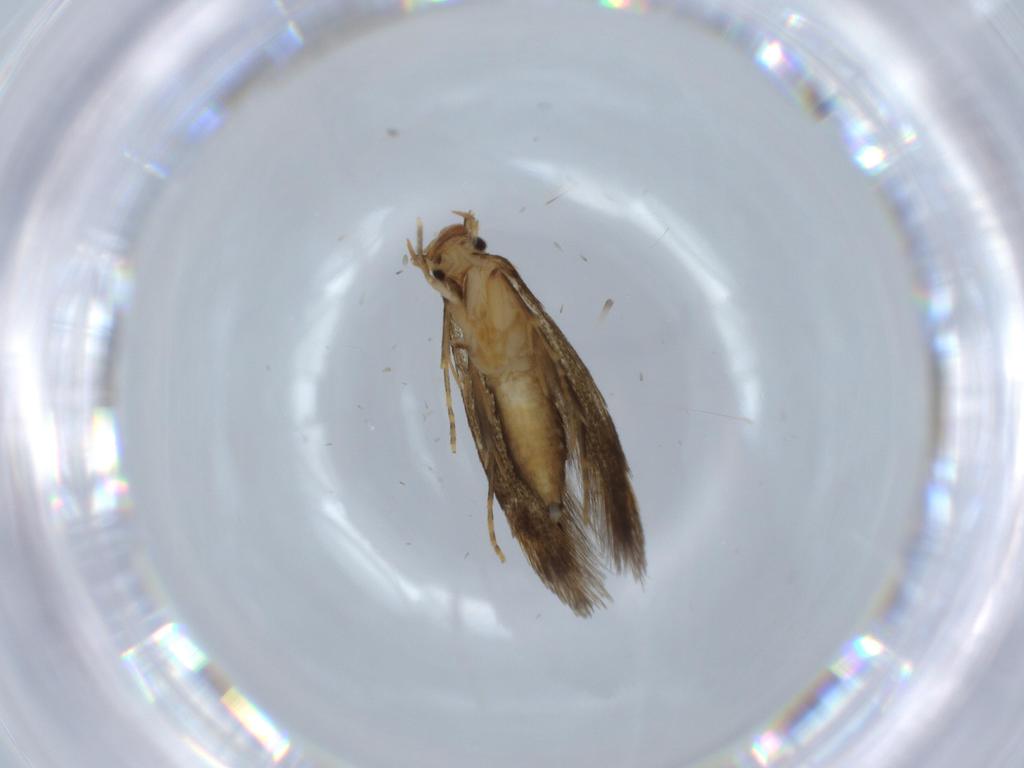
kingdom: Animalia
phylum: Arthropoda
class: Insecta
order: Lepidoptera
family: Tineidae
